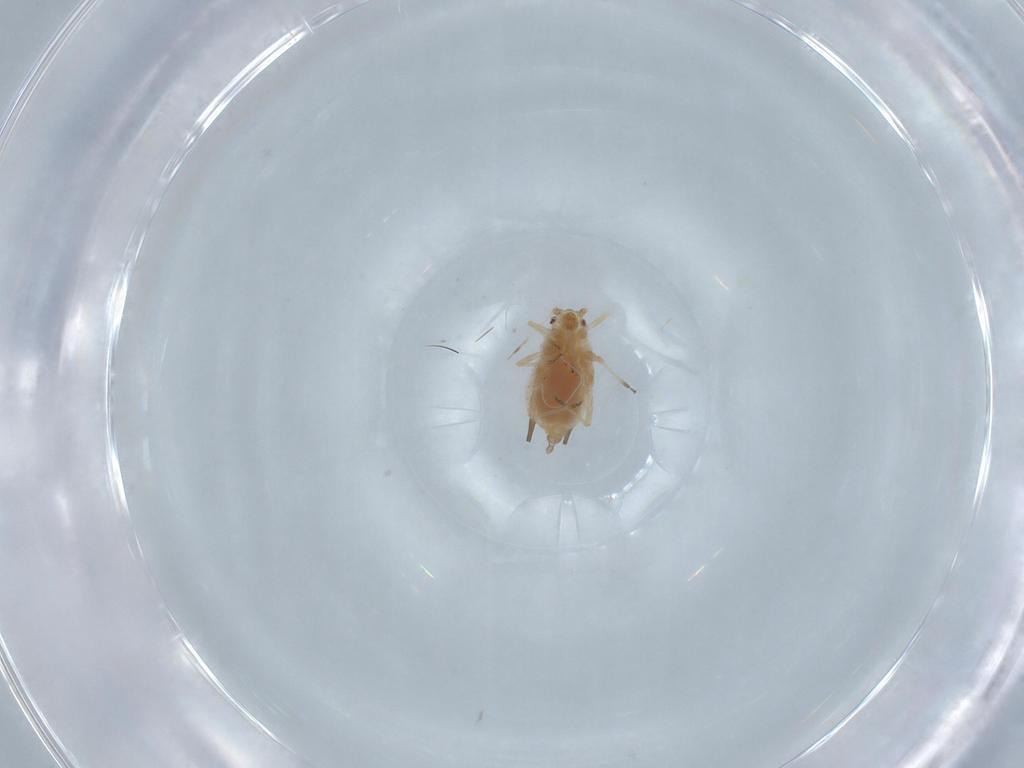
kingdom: Animalia
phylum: Arthropoda
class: Insecta
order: Hemiptera
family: Aphididae
